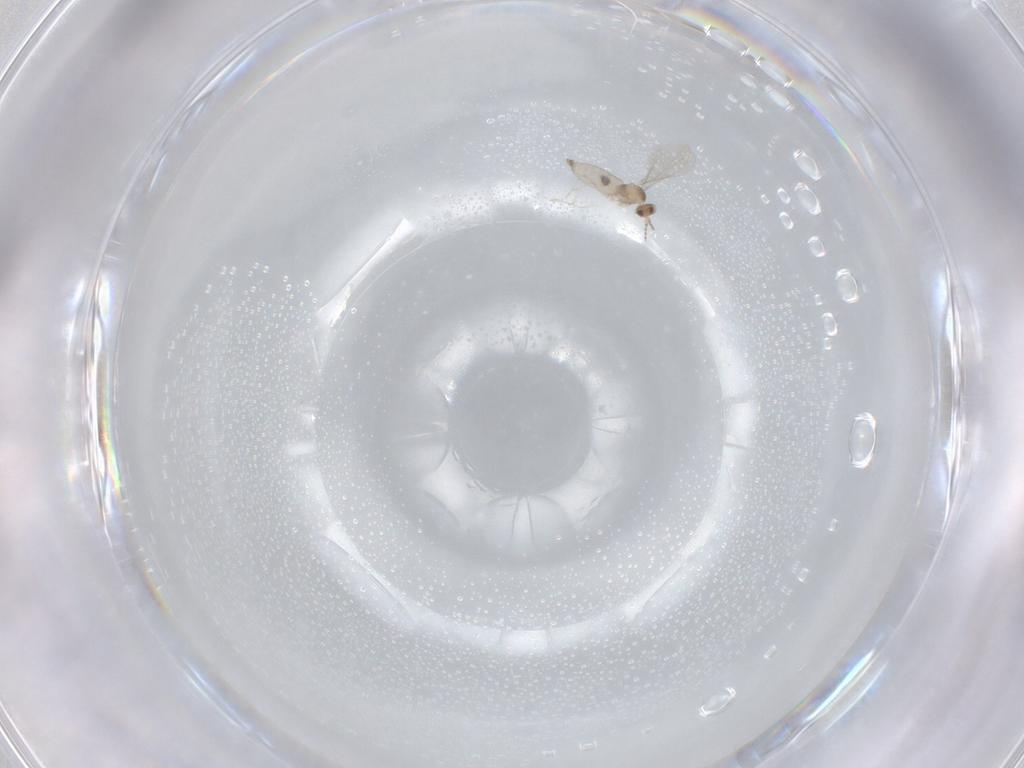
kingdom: Animalia
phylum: Arthropoda
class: Insecta
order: Diptera
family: Cecidomyiidae
